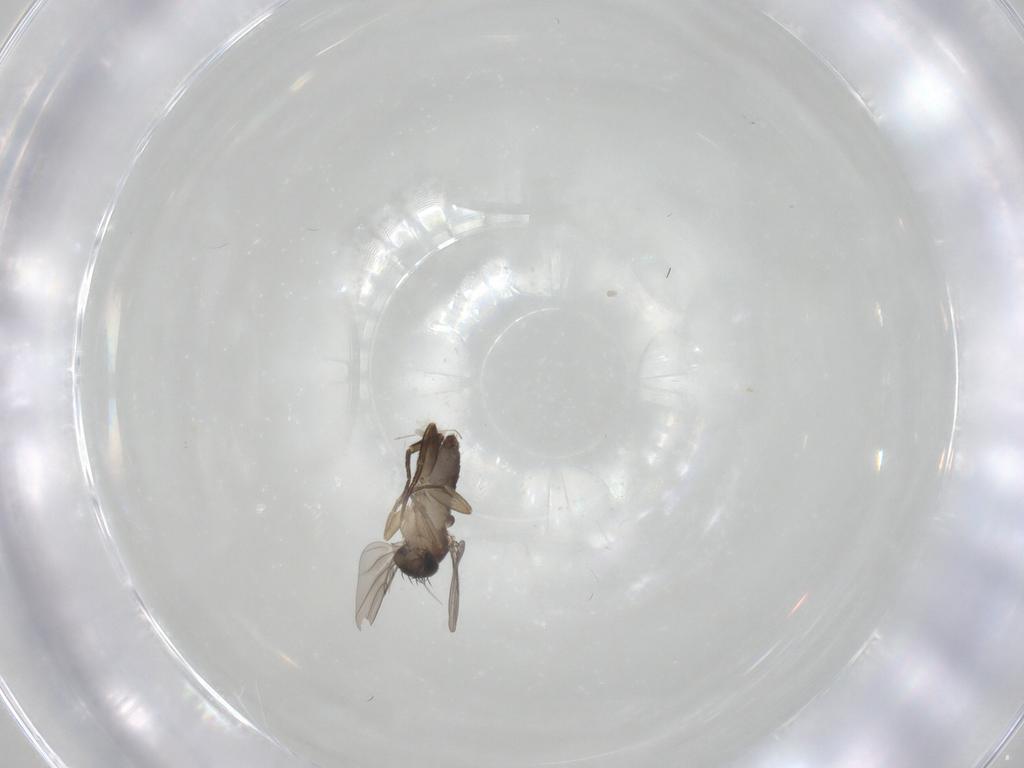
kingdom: Animalia
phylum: Arthropoda
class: Insecta
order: Diptera
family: Phoridae
